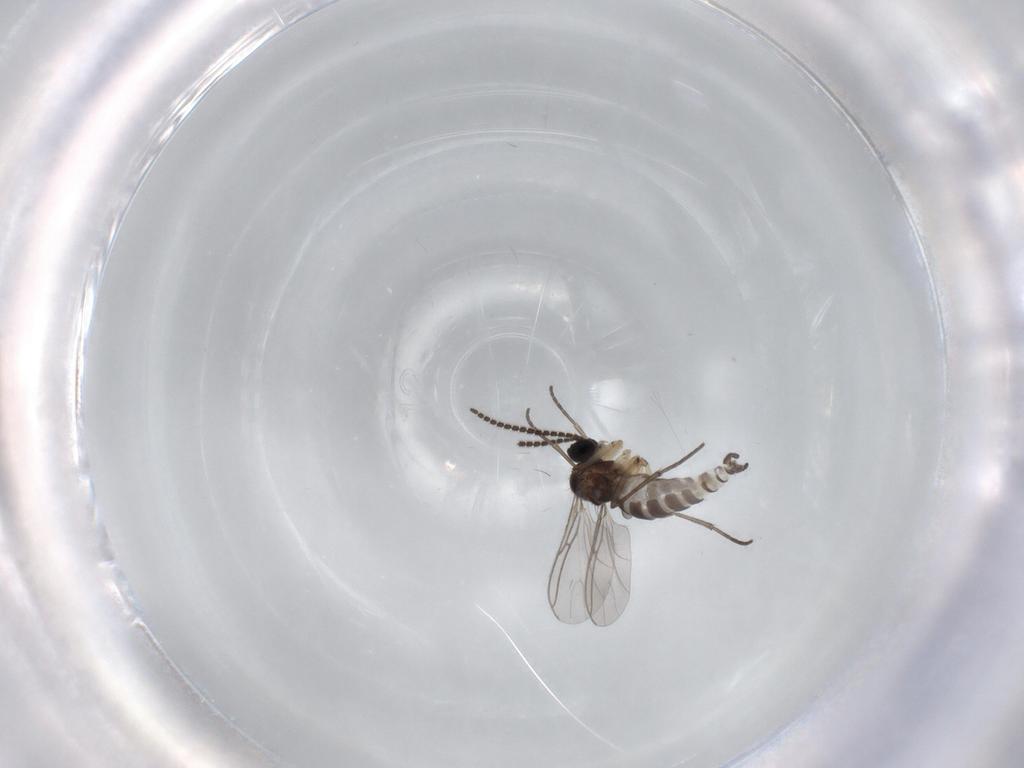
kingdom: Animalia
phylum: Arthropoda
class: Insecta
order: Diptera
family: Sciaridae
